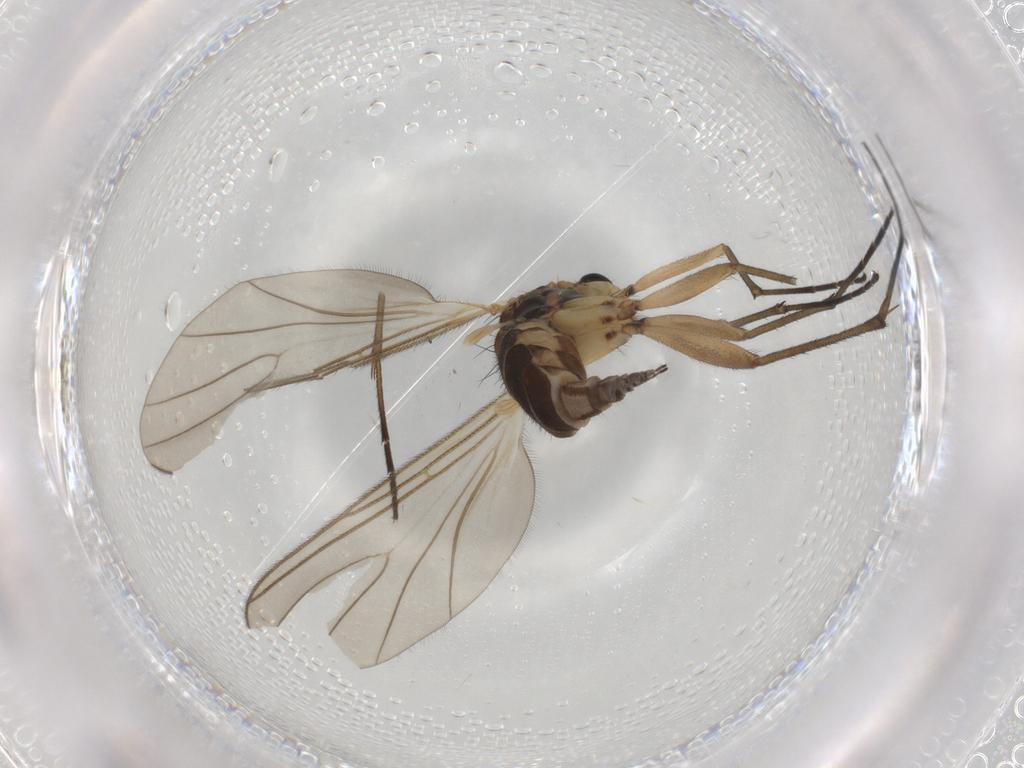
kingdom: Animalia
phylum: Arthropoda
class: Insecta
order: Diptera
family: Sciaridae
